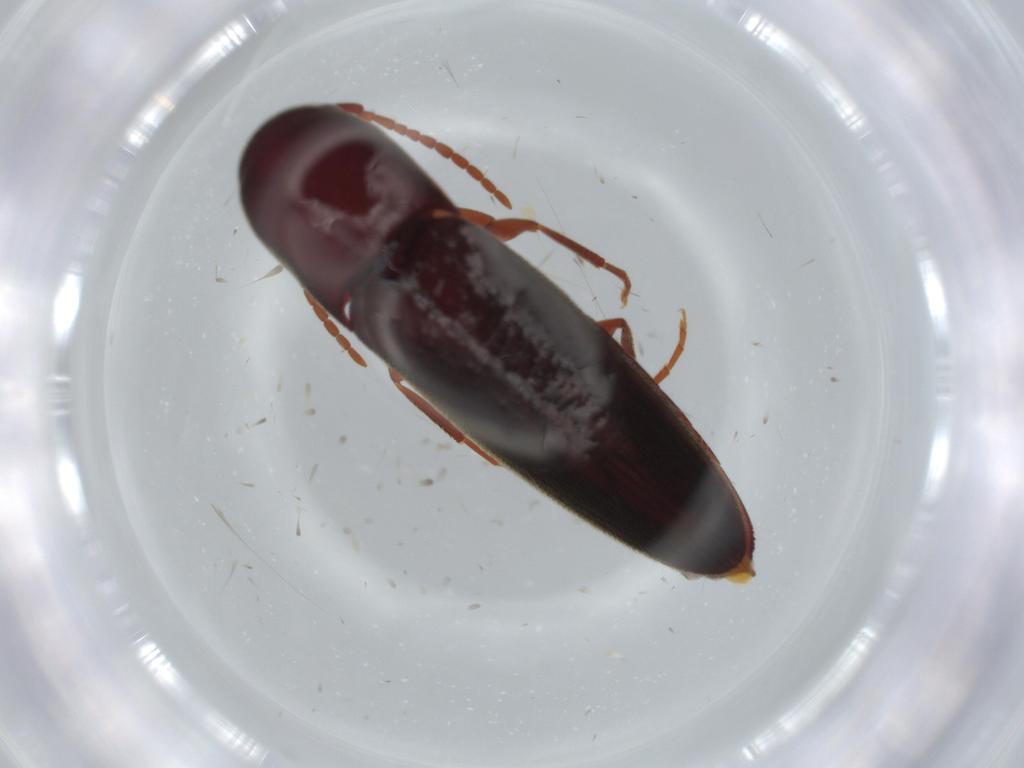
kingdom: Animalia
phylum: Arthropoda
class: Insecta
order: Coleoptera
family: Eucnemidae
